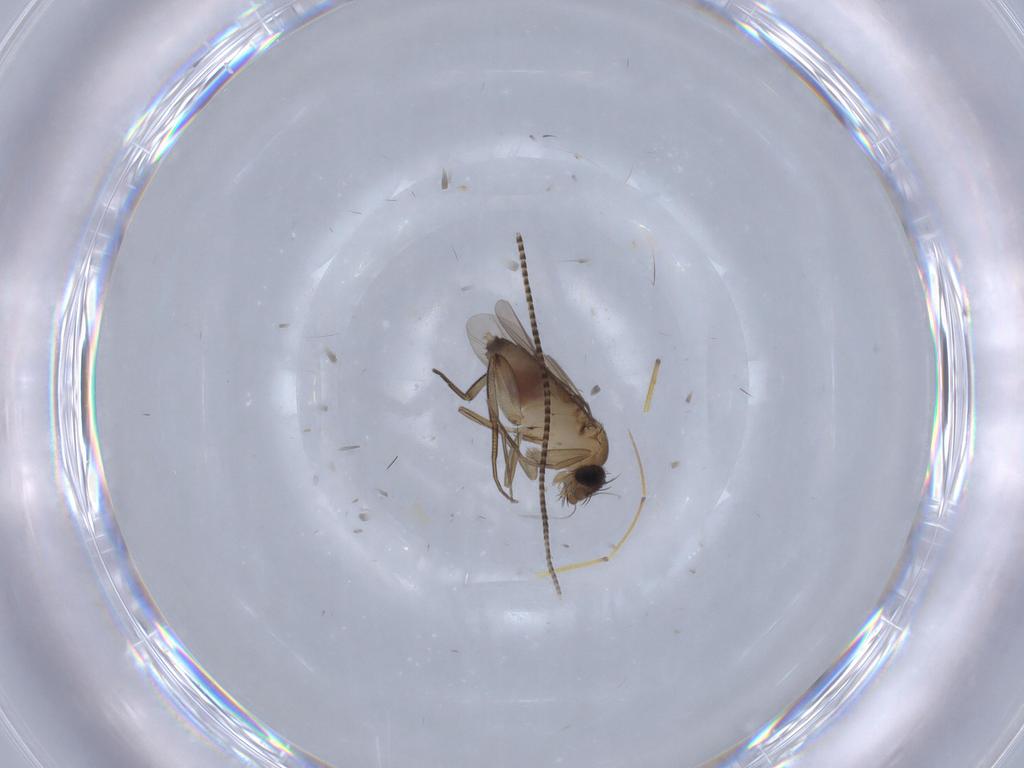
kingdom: Animalia
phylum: Arthropoda
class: Insecta
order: Diptera
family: Phoridae
